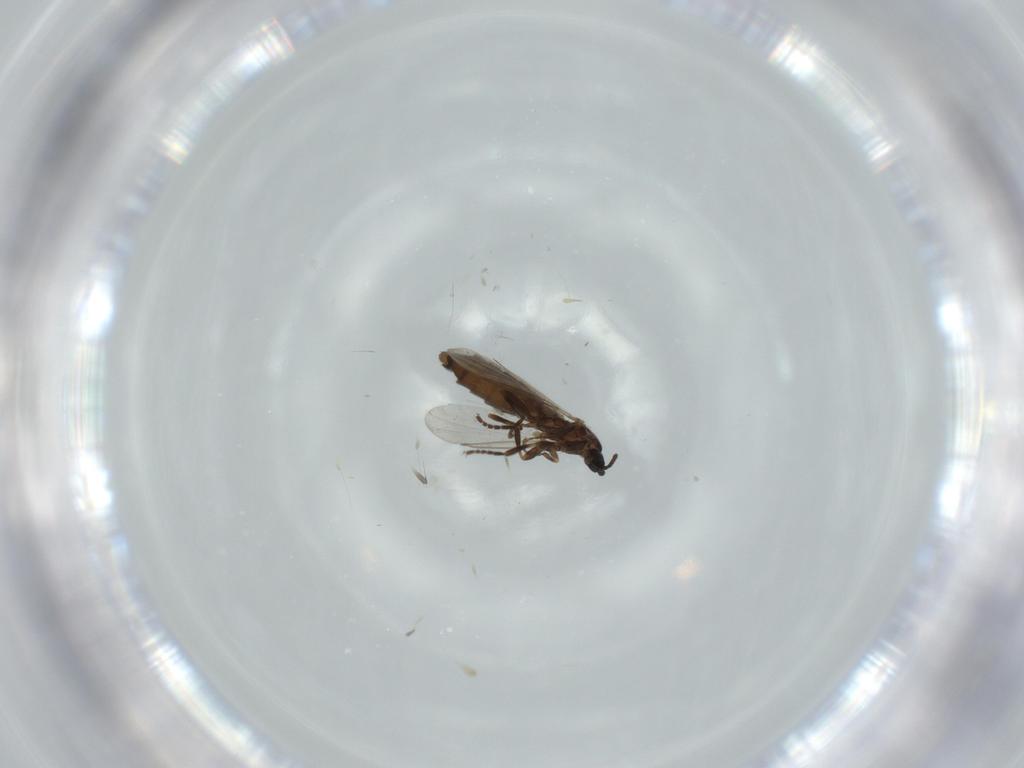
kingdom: Animalia
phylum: Arthropoda
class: Insecta
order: Diptera
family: Scatopsidae
